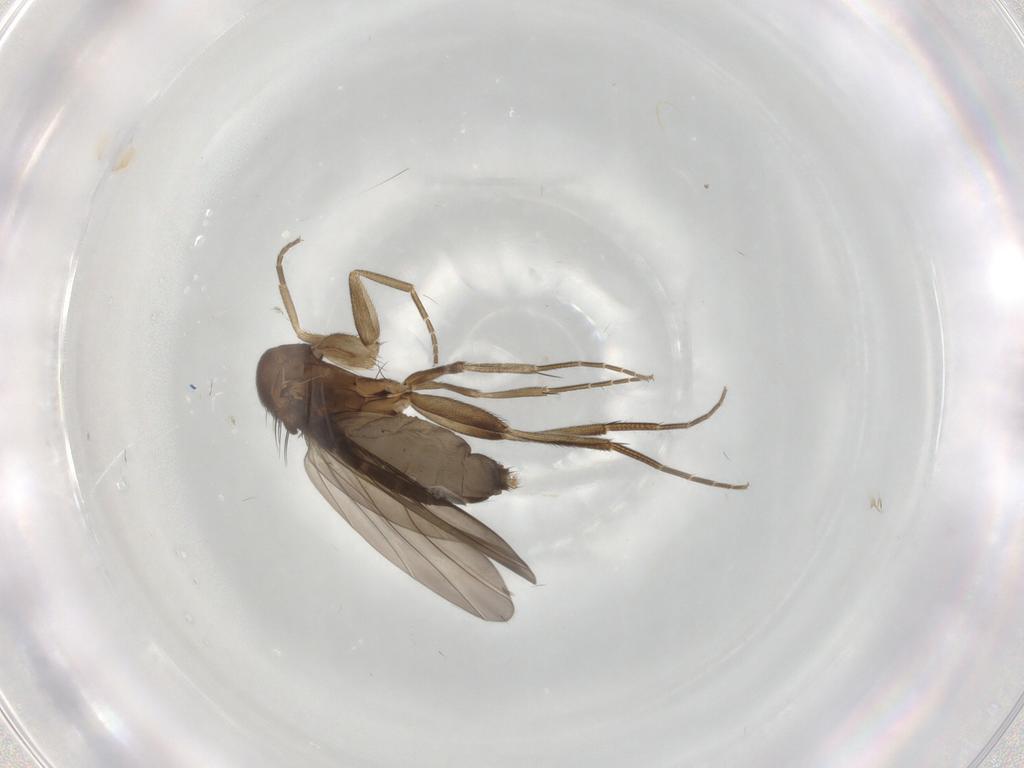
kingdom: Animalia
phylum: Arthropoda
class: Insecta
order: Diptera
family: Phoridae
